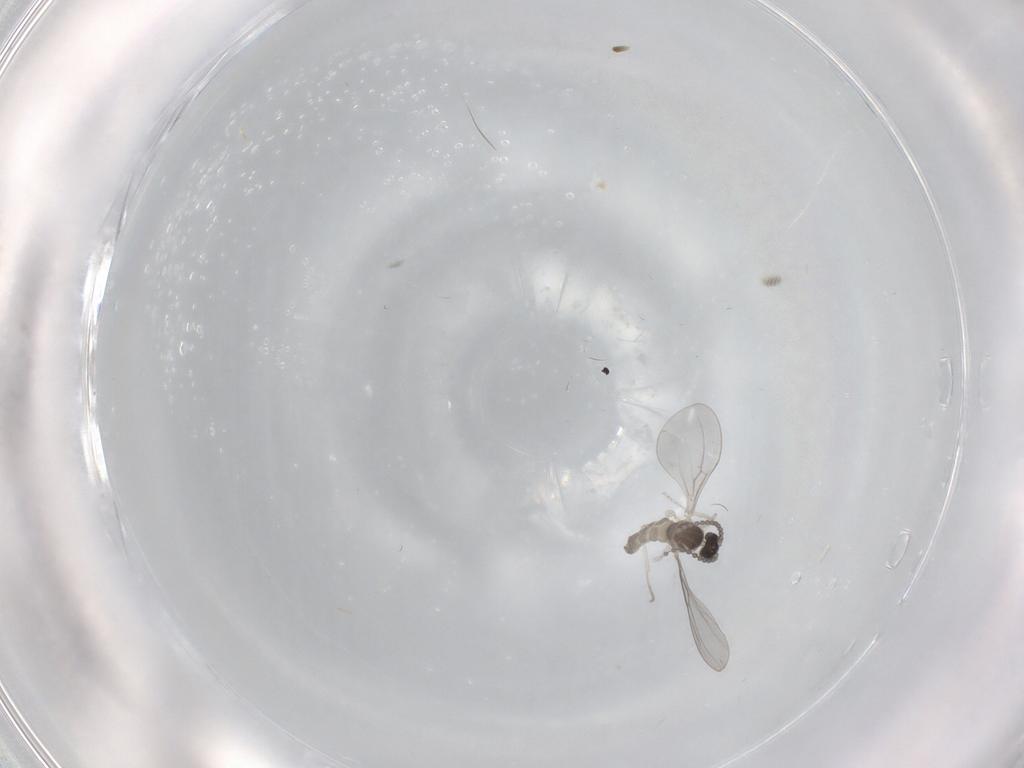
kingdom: Animalia
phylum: Arthropoda
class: Insecta
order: Diptera
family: Cecidomyiidae
